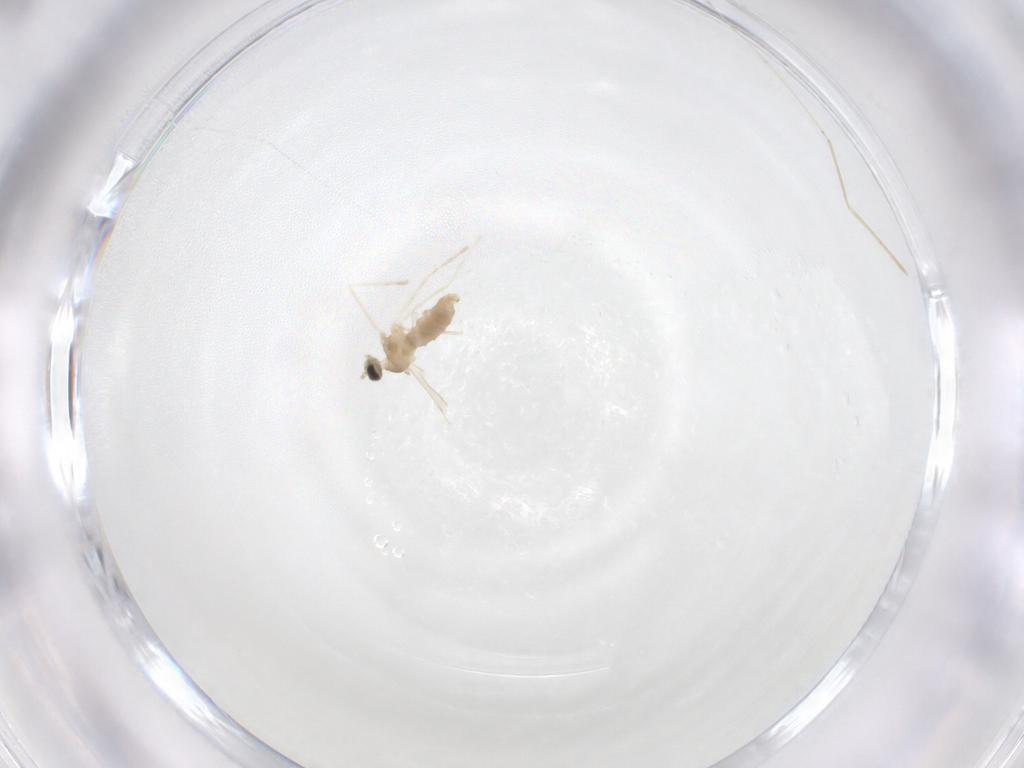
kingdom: Animalia
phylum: Arthropoda
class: Insecta
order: Diptera
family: Cecidomyiidae
